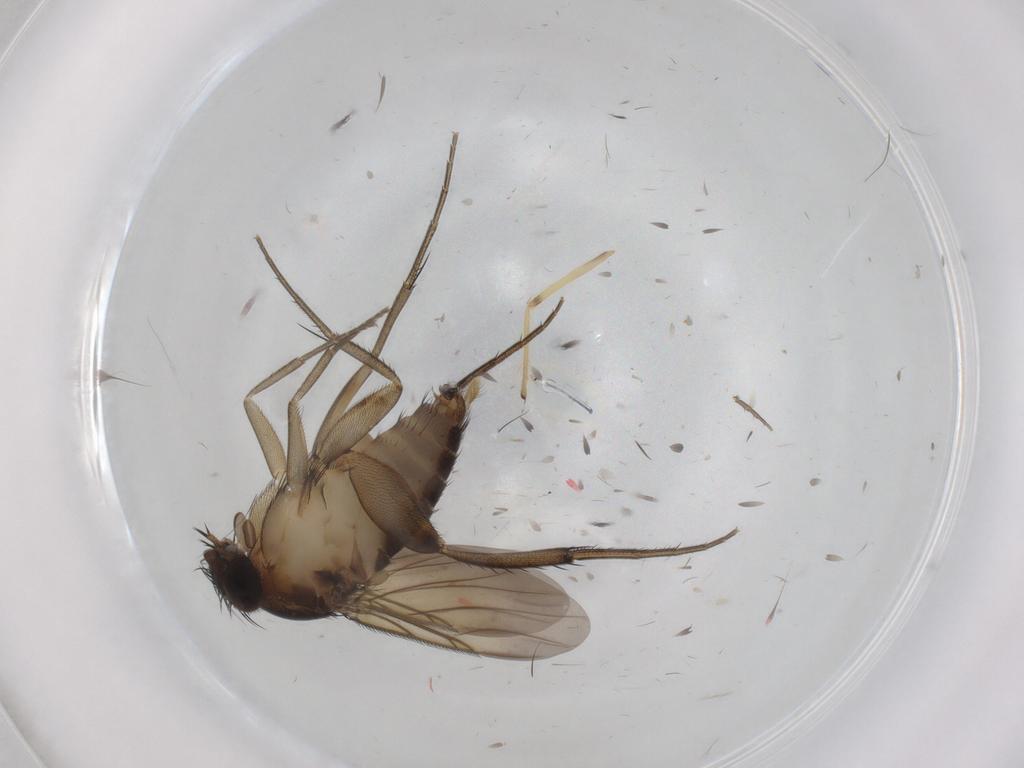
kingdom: Animalia
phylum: Arthropoda
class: Insecta
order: Diptera
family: Phoridae
